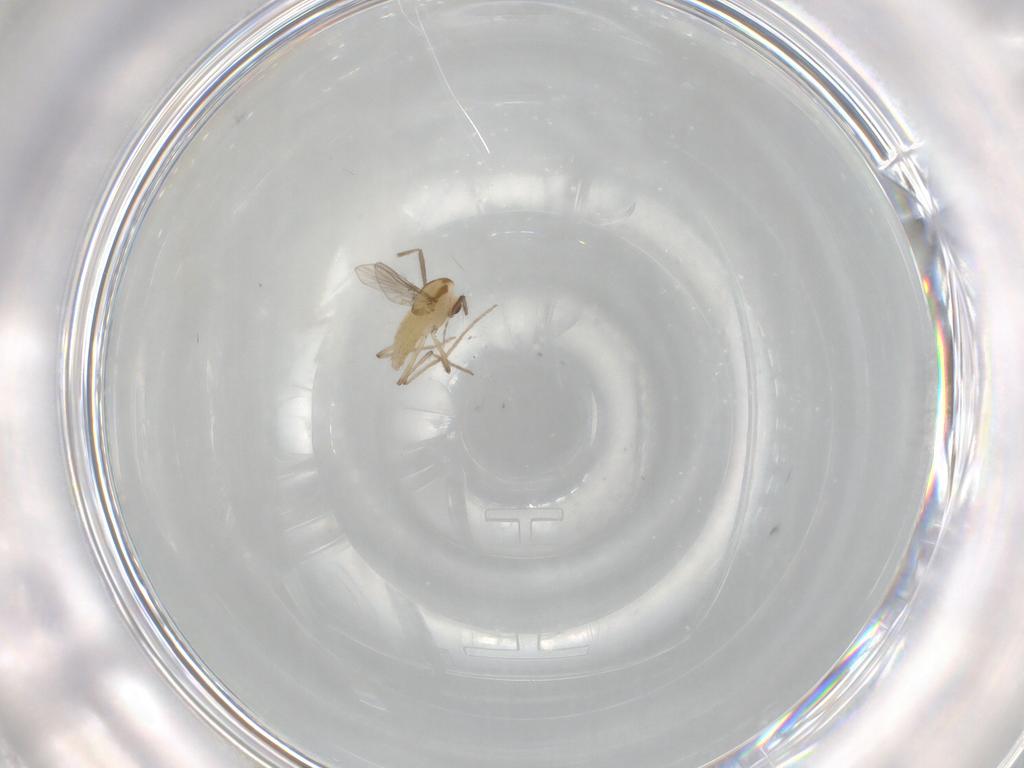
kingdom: Animalia
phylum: Arthropoda
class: Insecta
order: Diptera
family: Chironomidae
